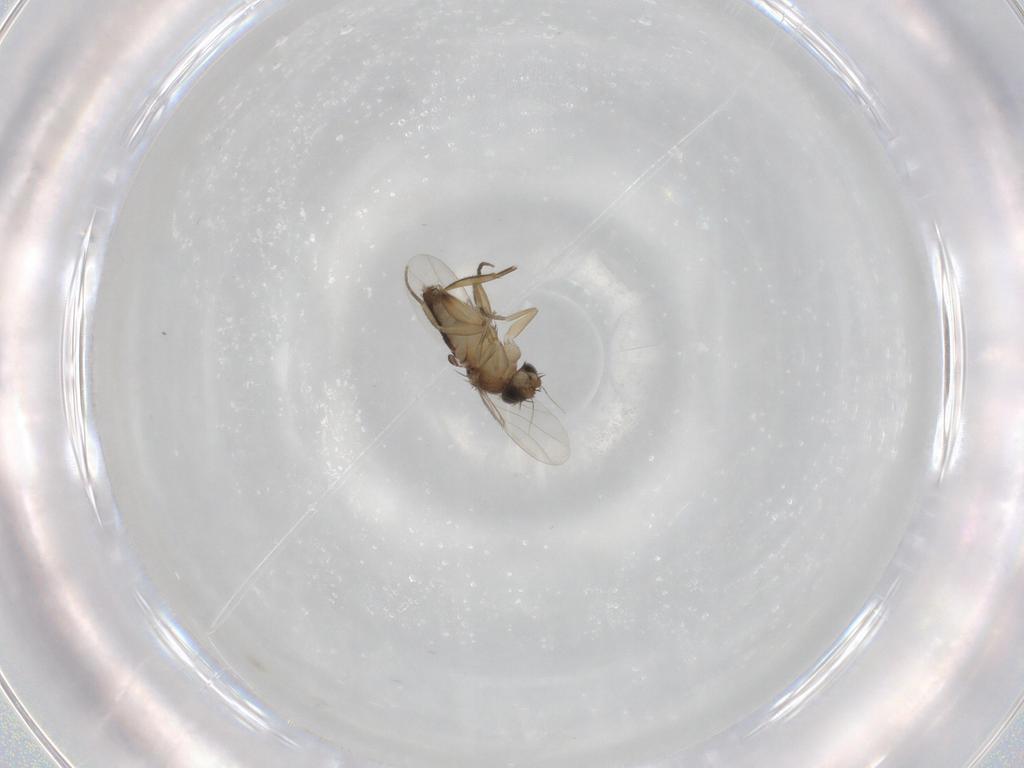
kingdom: Animalia
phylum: Arthropoda
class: Insecta
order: Diptera
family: Phoridae
